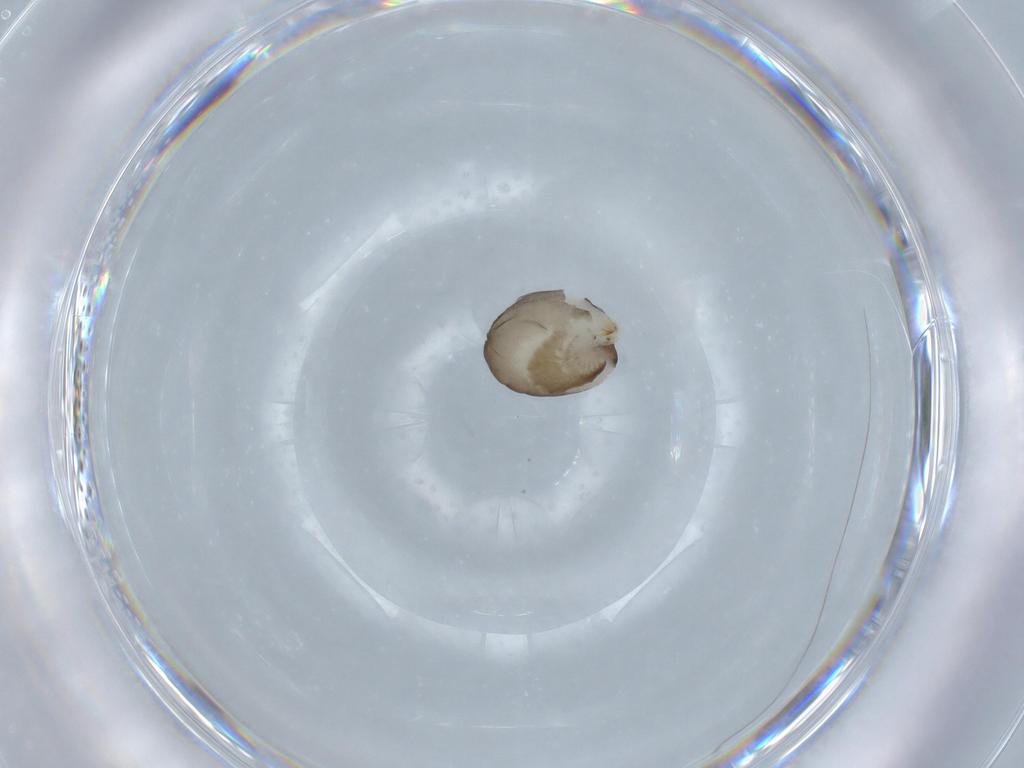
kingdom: Animalia
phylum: Arthropoda
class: Insecta
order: Hymenoptera
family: Dryinidae
